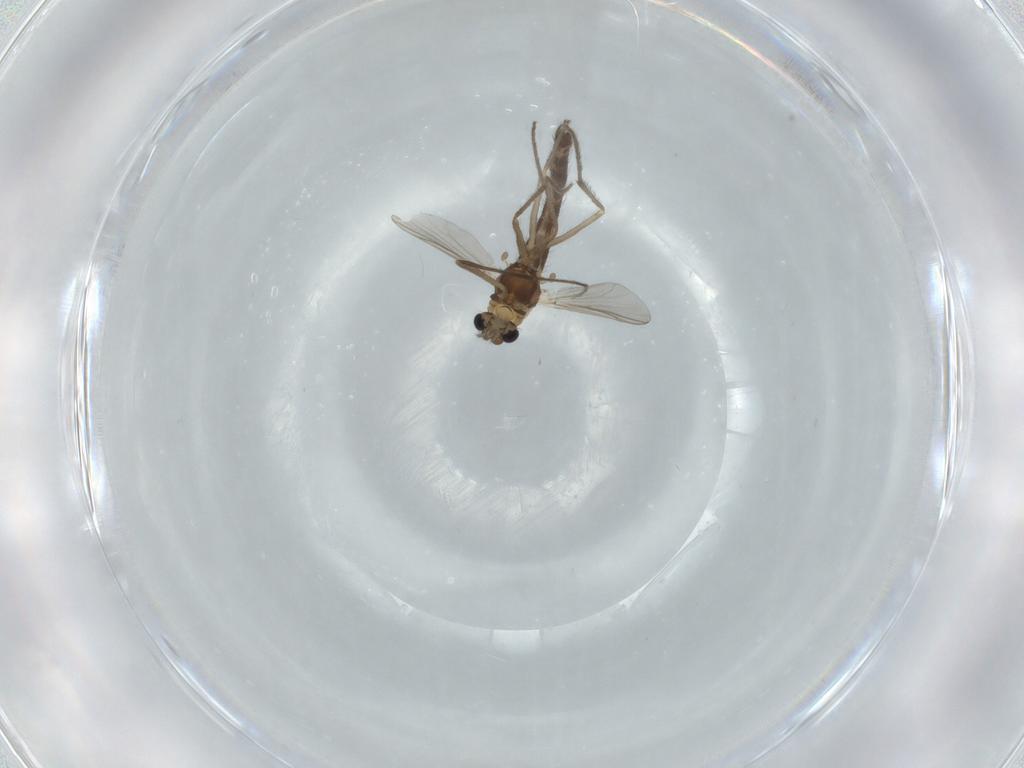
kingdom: Animalia
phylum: Arthropoda
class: Insecta
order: Diptera
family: Chironomidae
